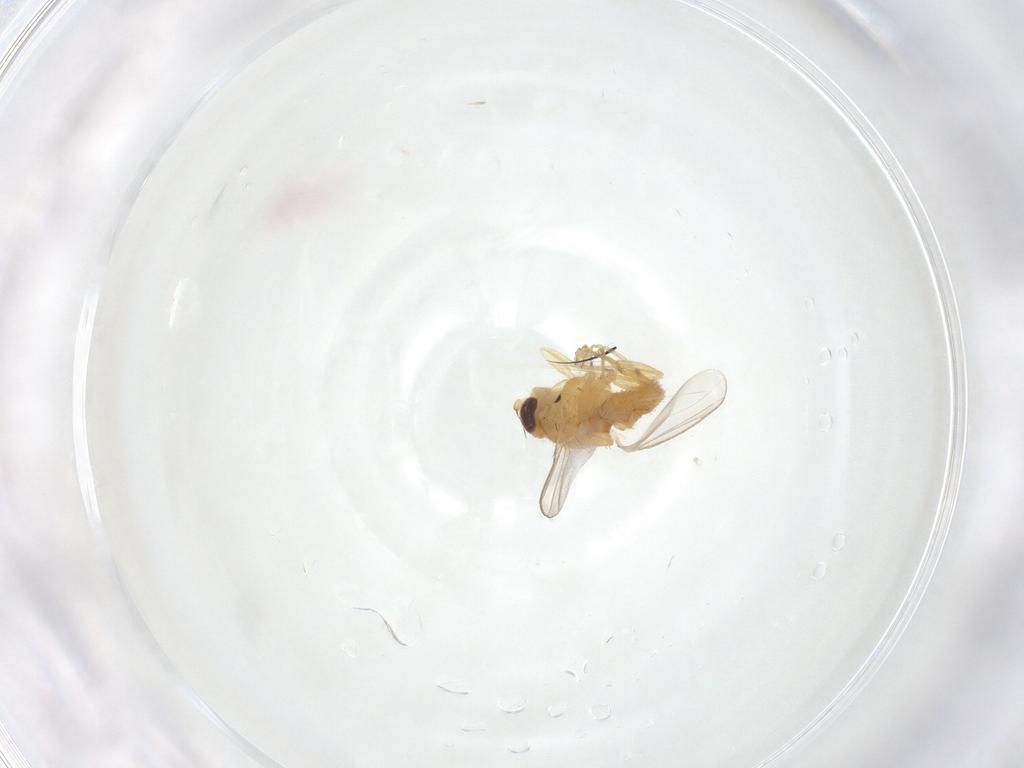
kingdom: Animalia
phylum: Arthropoda
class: Insecta
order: Diptera
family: Chloropidae
